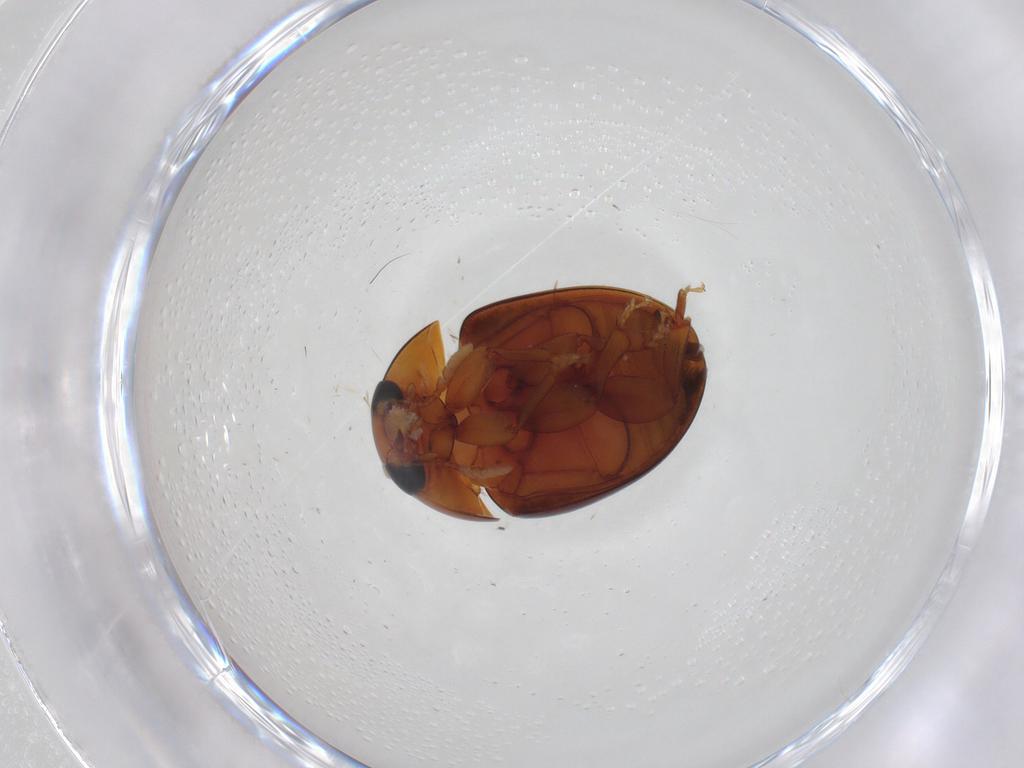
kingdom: Animalia
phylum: Arthropoda
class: Insecta
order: Coleoptera
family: Phalacridae
